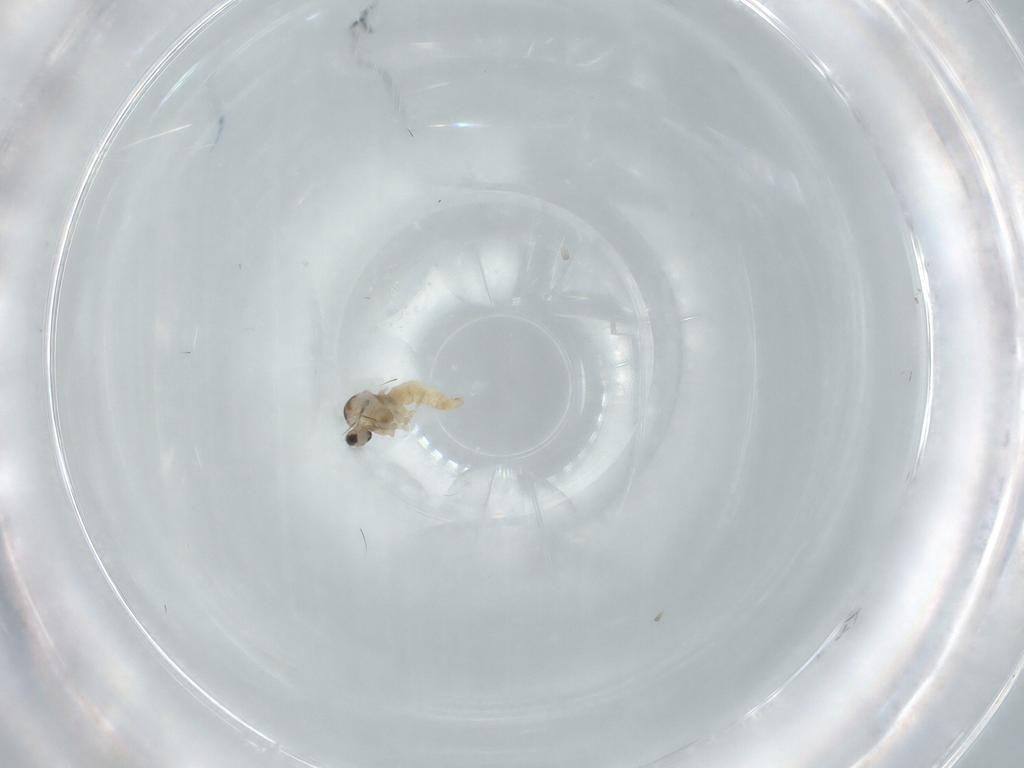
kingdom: Animalia
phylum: Arthropoda
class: Insecta
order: Diptera
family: Cecidomyiidae
